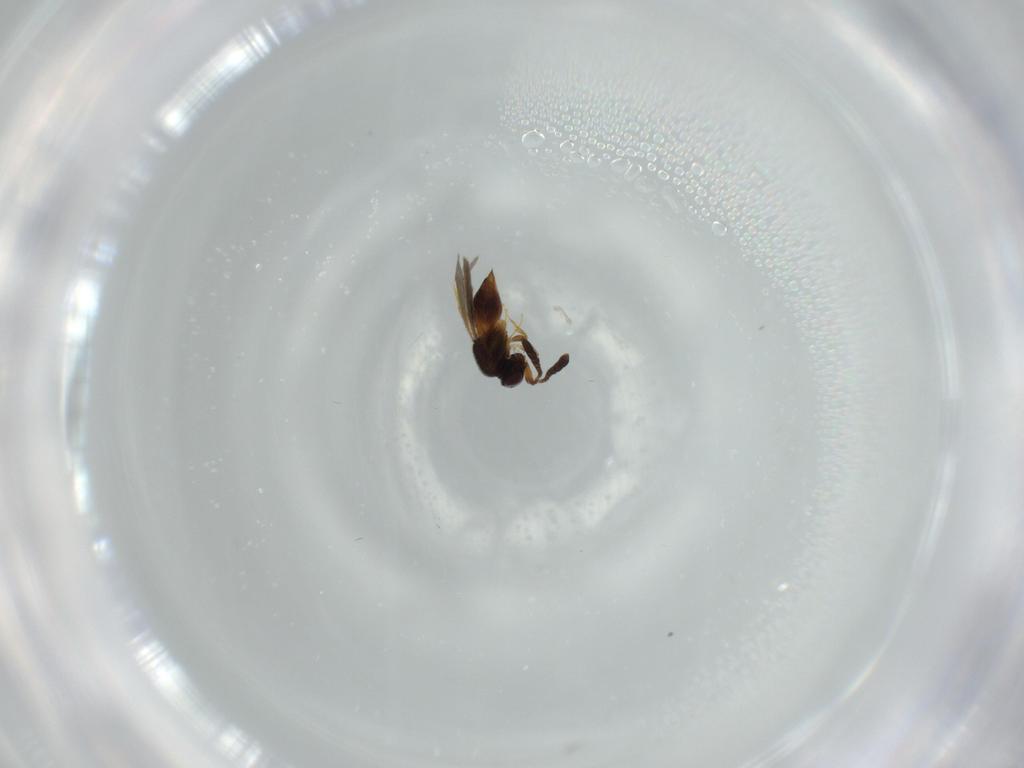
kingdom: Animalia
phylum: Arthropoda
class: Insecta
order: Hymenoptera
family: Ceraphronidae
